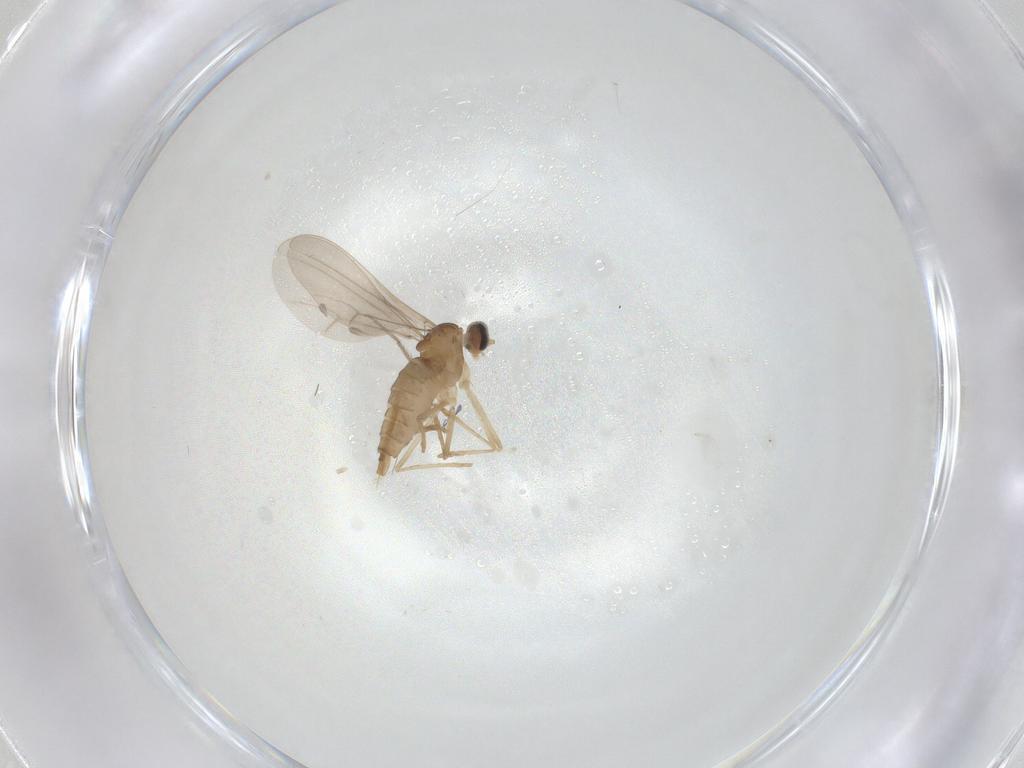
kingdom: Animalia
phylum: Arthropoda
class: Insecta
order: Diptera
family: Cecidomyiidae
